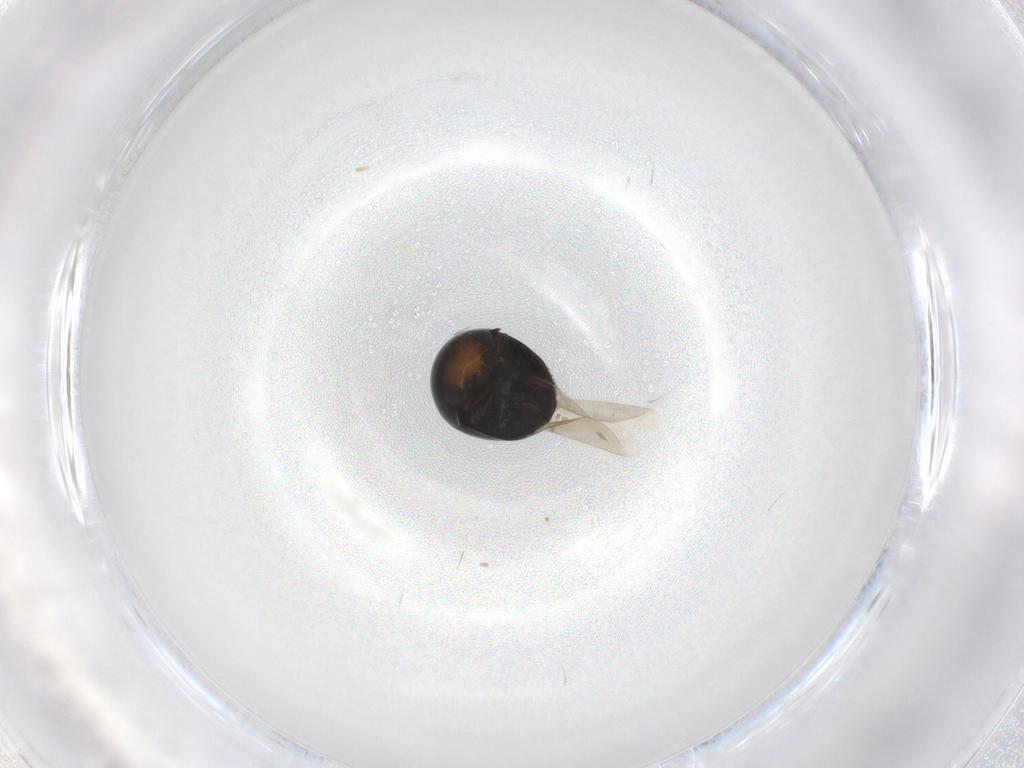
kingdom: Animalia
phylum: Arthropoda
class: Insecta
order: Coleoptera
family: Cybocephalidae
